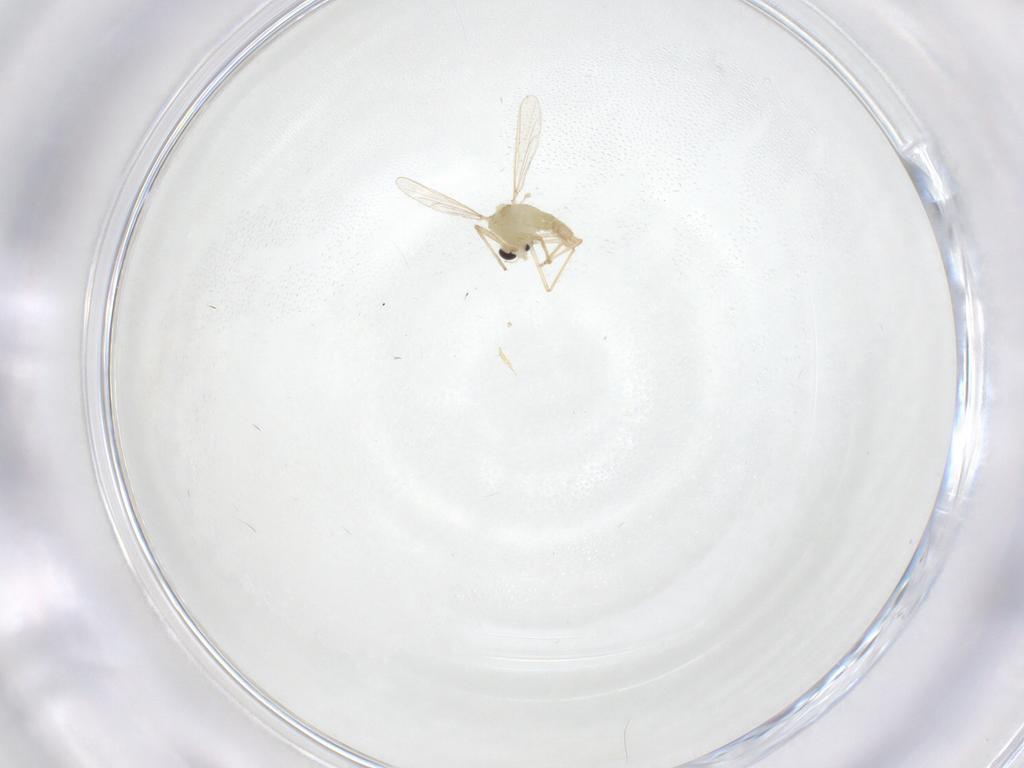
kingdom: Animalia
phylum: Arthropoda
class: Insecta
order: Diptera
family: Chironomidae
